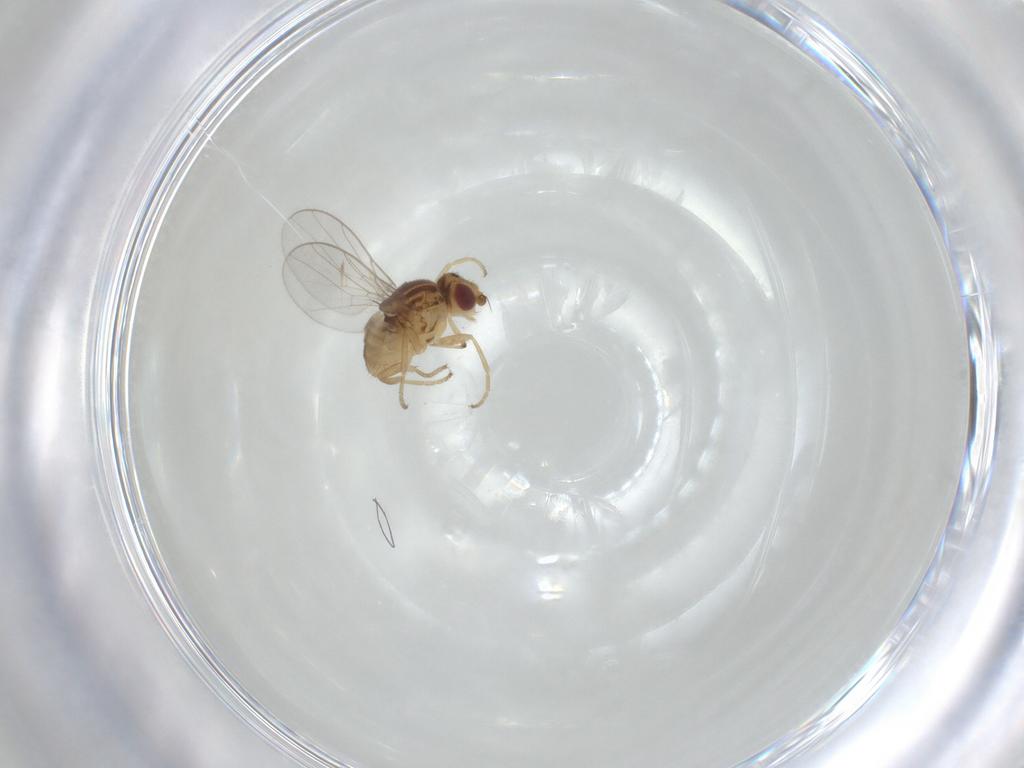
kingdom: Animalia
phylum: Arthropoda
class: Insecta
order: Diptera
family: Chloropidae
